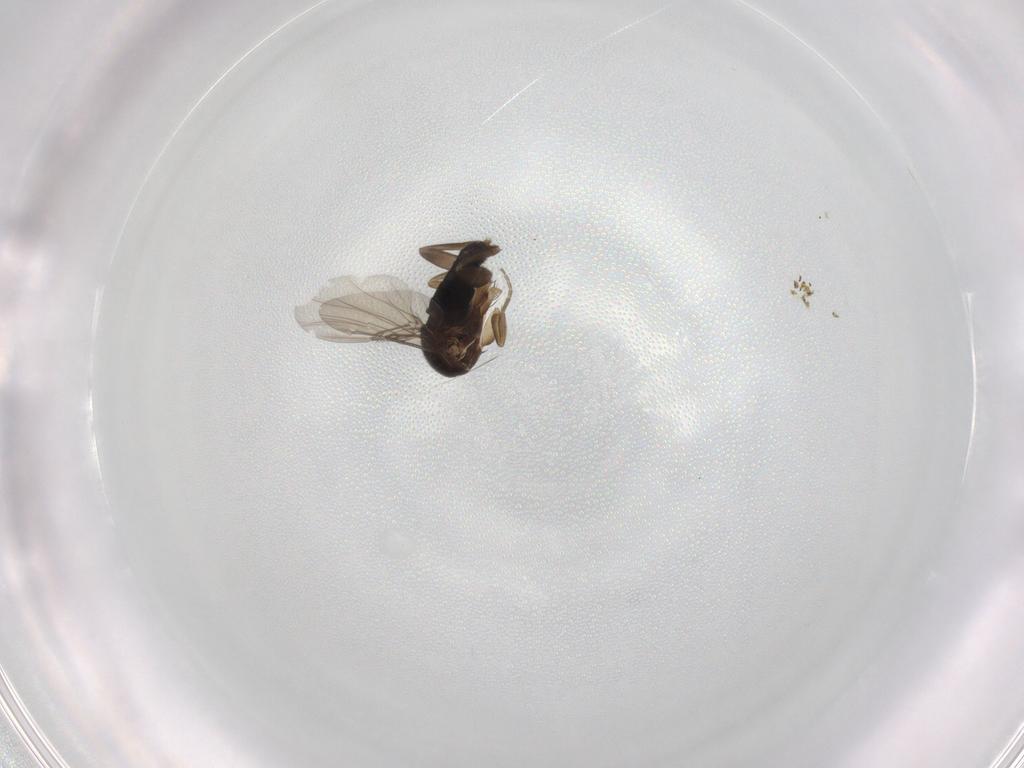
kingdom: Animalia
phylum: Arthropoda
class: Insecta
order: Diptera
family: Phoridae
